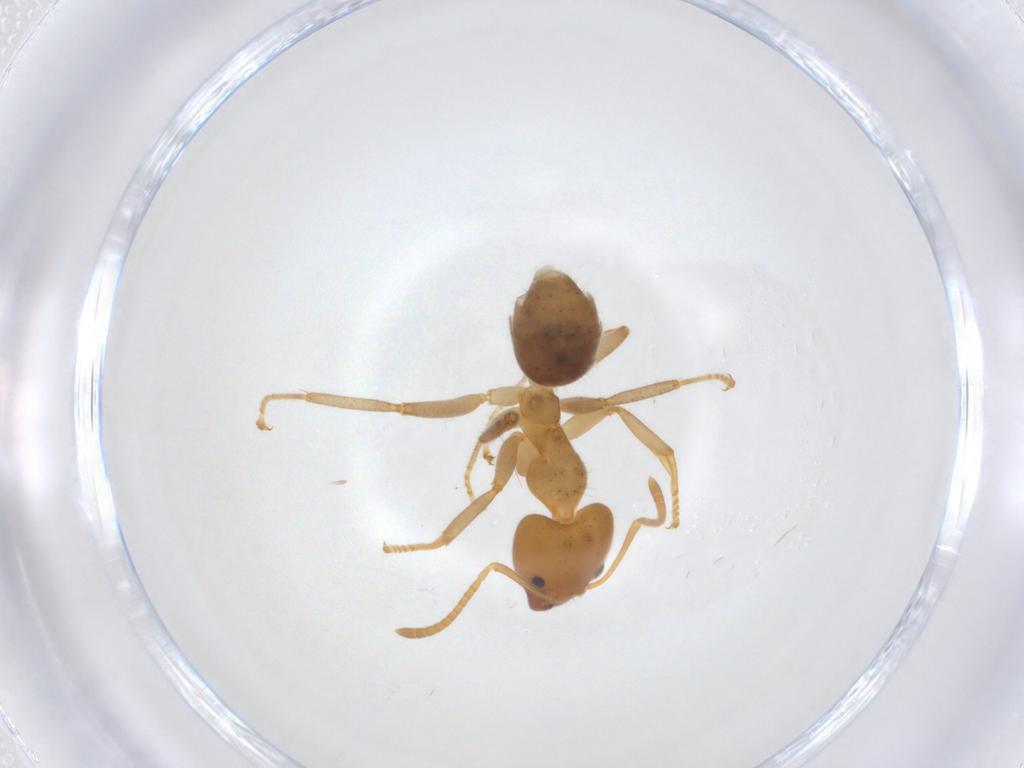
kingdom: Animalia
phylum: Arthropoda
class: Insecta
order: Hymenoptera
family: Formicidae
